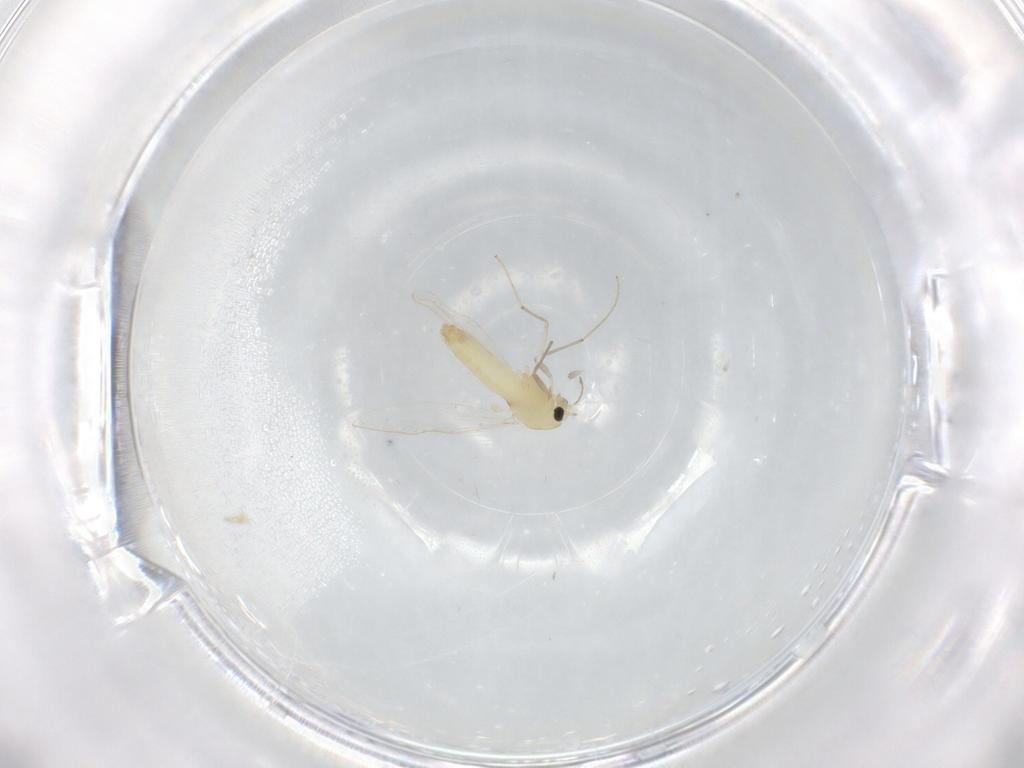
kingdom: Animalia
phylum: Arthropoda
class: Insecta
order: Diptera
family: Chironomidae
